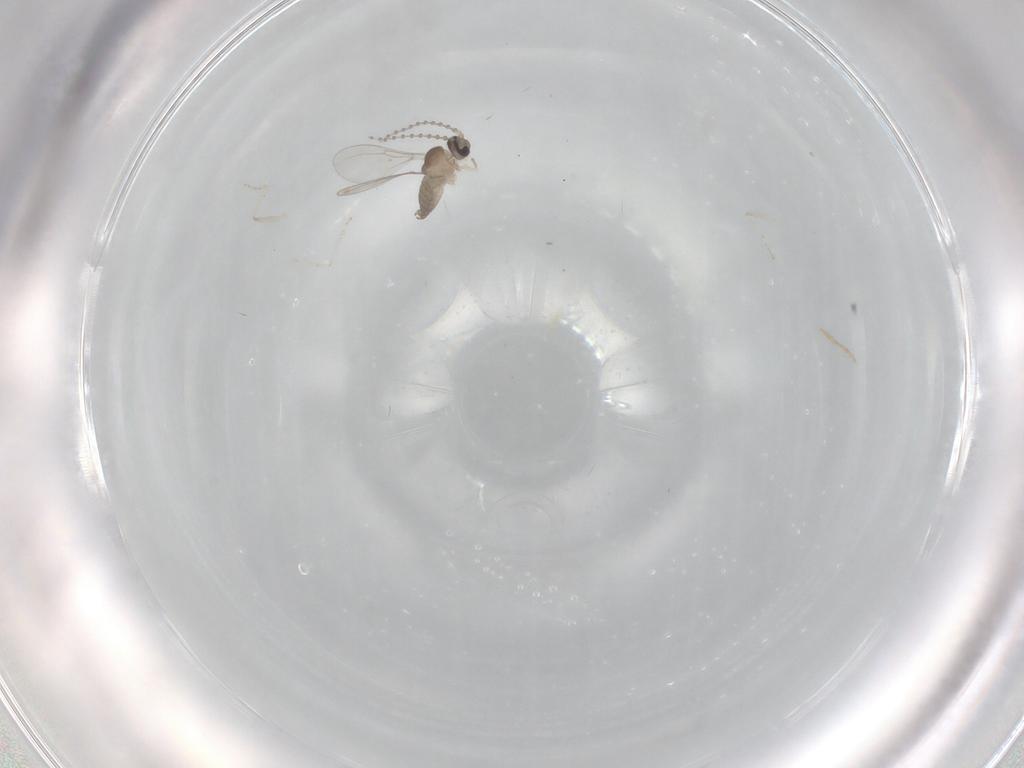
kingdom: Animalia
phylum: Arthropoda
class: Insecta
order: Diptera
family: Cecidomyiidae
